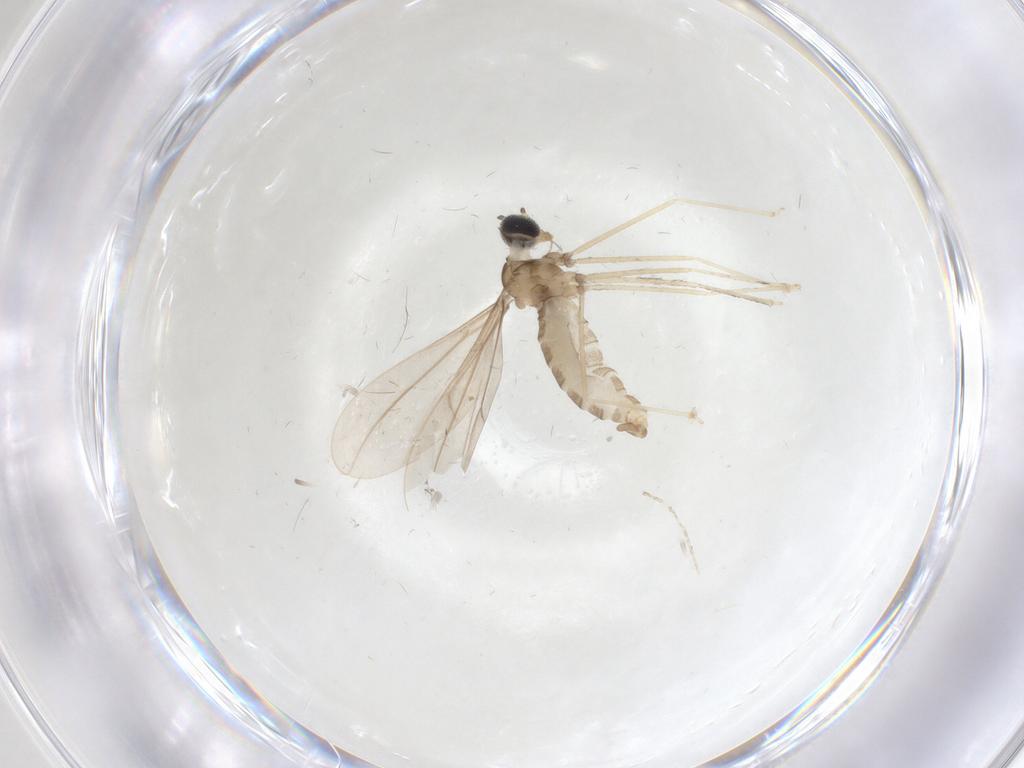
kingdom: Animalia
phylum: Arthropoda
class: Insecta
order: Diptera
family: Cecidomyiidae
